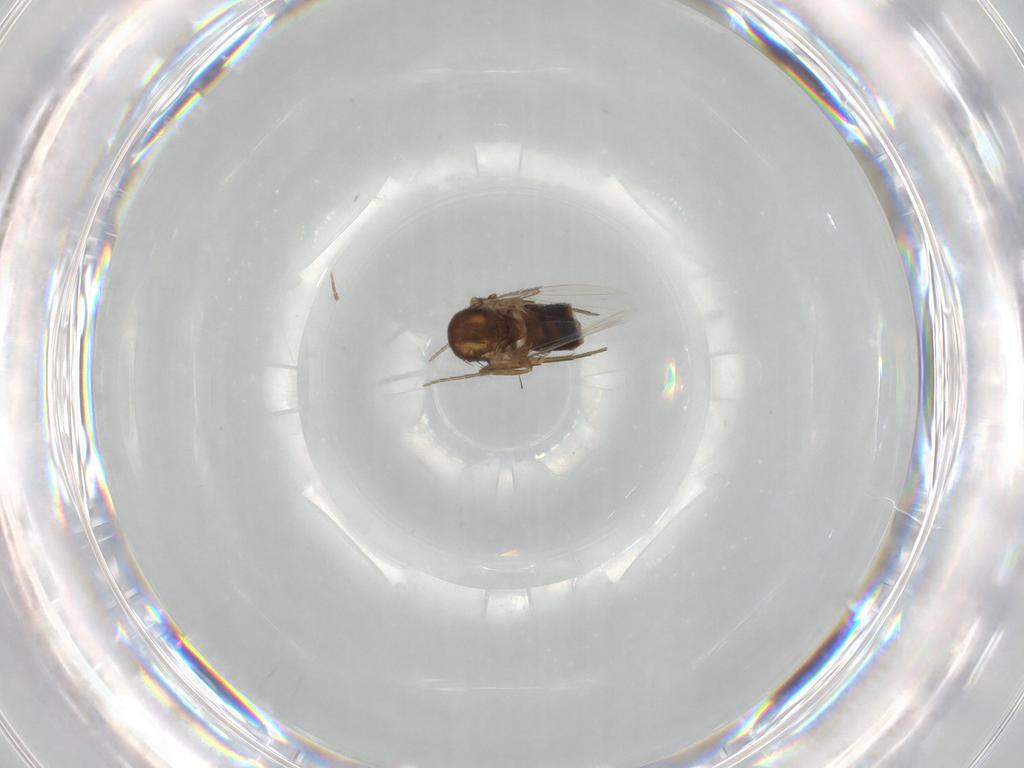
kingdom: Animalia
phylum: Arthropoda
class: Insecta
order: Diptera
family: Phoridae
